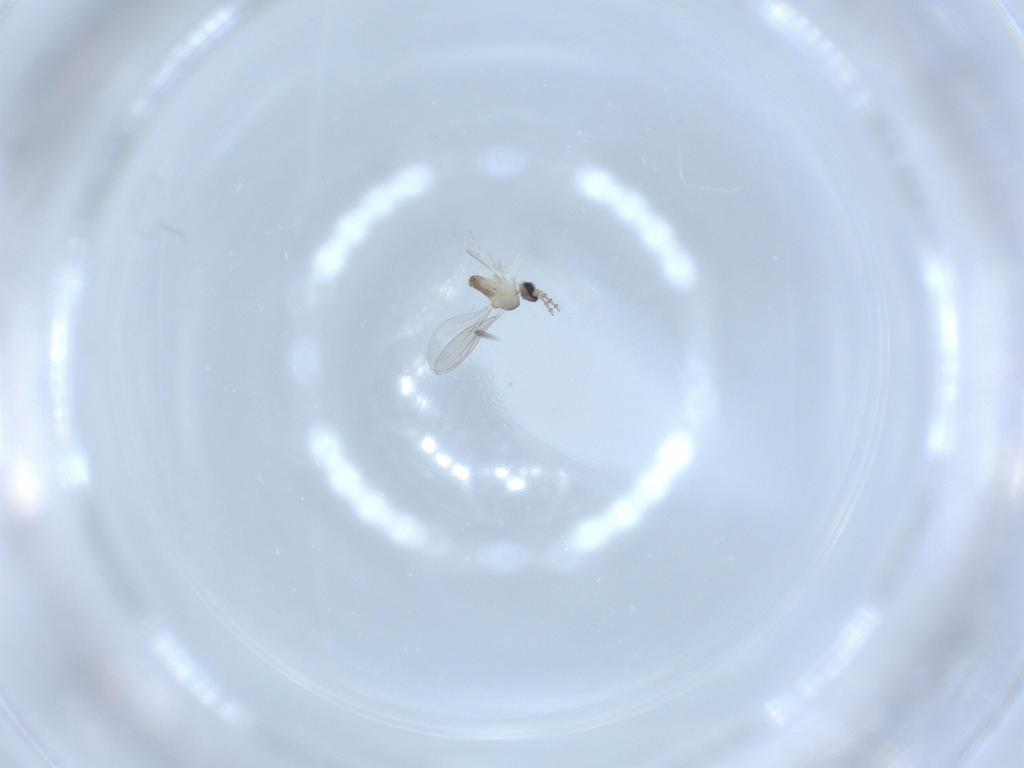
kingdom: Animalia
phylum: Arthropoda
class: Insecta
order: Diptera
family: Cecidomyiidae
